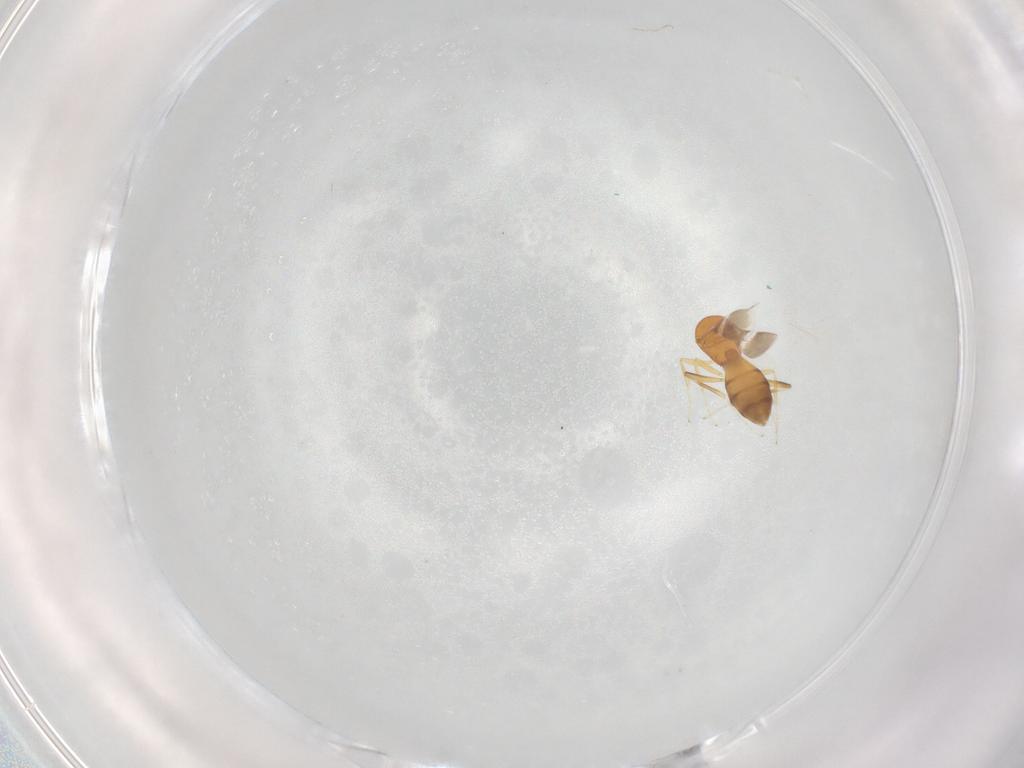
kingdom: Animalia
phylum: Arthropoda
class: Insecta
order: Hymenoptera
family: Scelionidae
